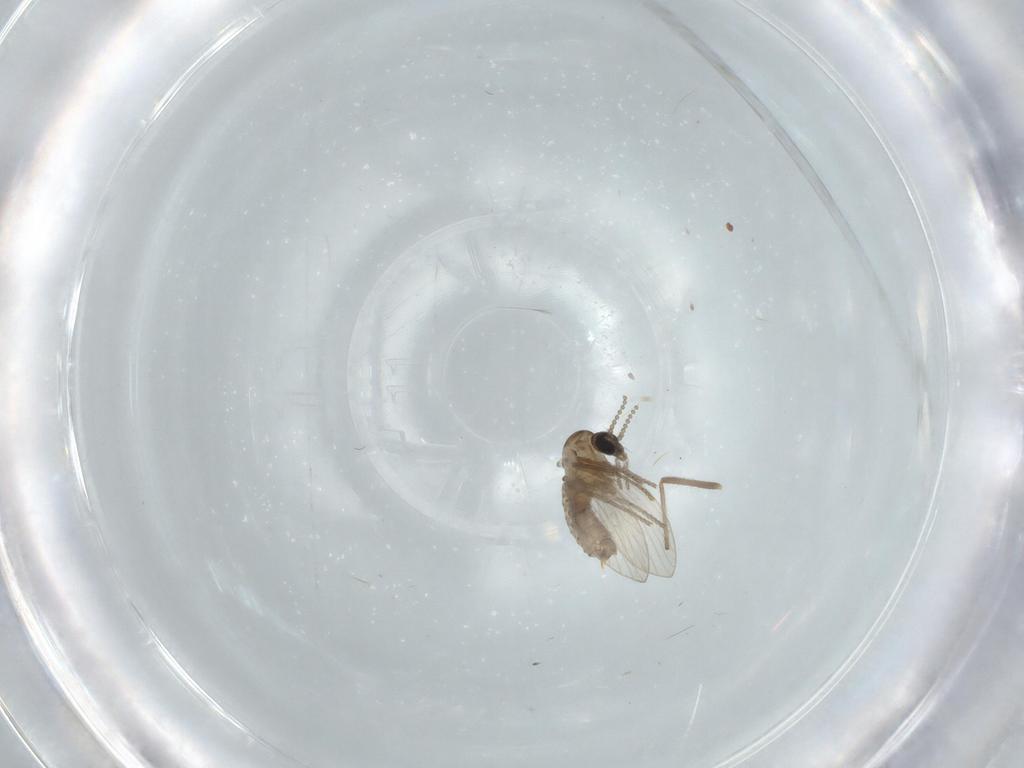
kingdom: Animalia
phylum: Arthropoda
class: Insecta
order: Diptera
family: Psychodidae
